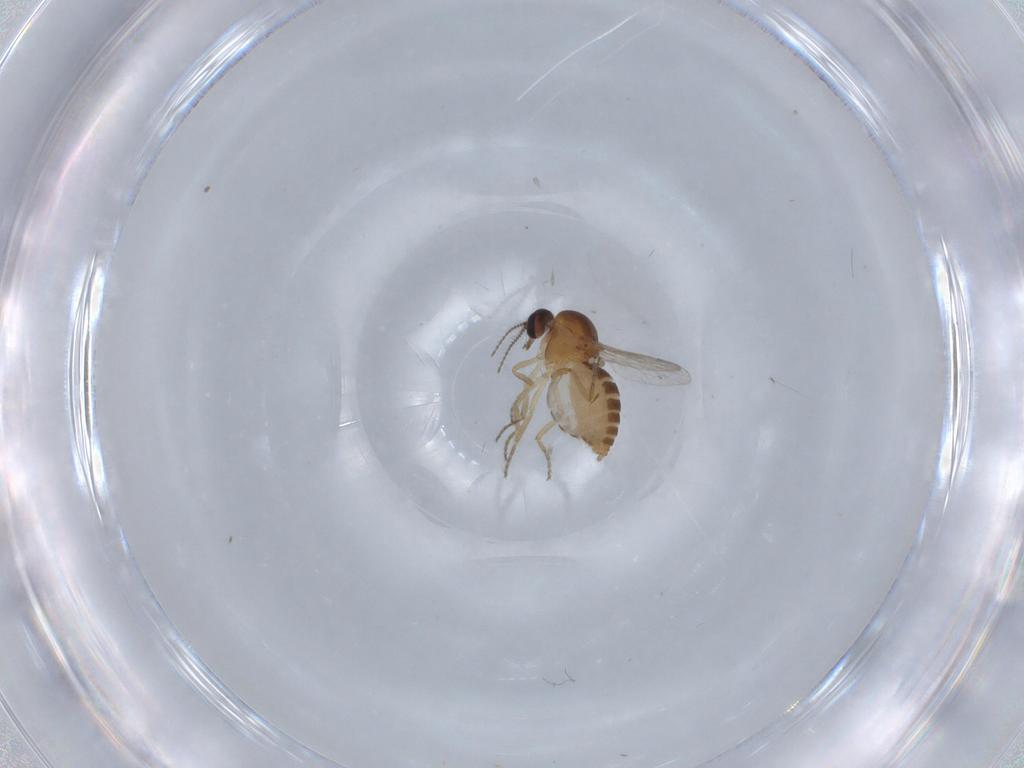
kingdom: Animalia
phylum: Arthropoda
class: Insecta
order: Diptera
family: Ceratopogonidae
